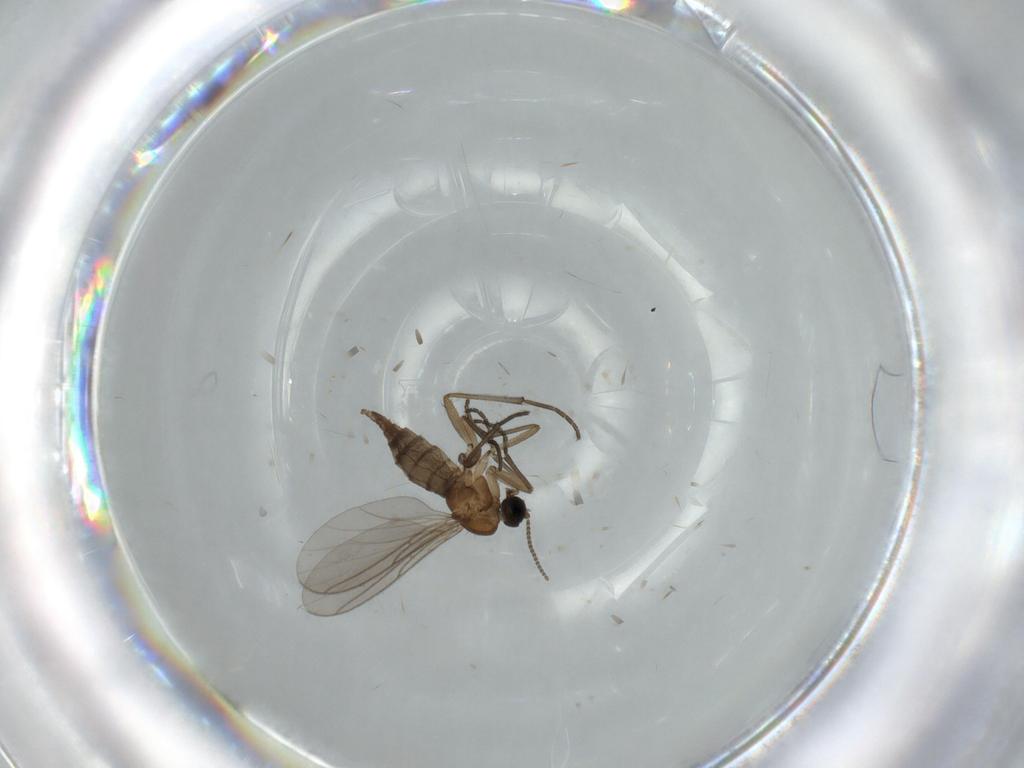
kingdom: Animalia
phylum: Arthropoda
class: Insecta
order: Diptera
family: Sciaridae
